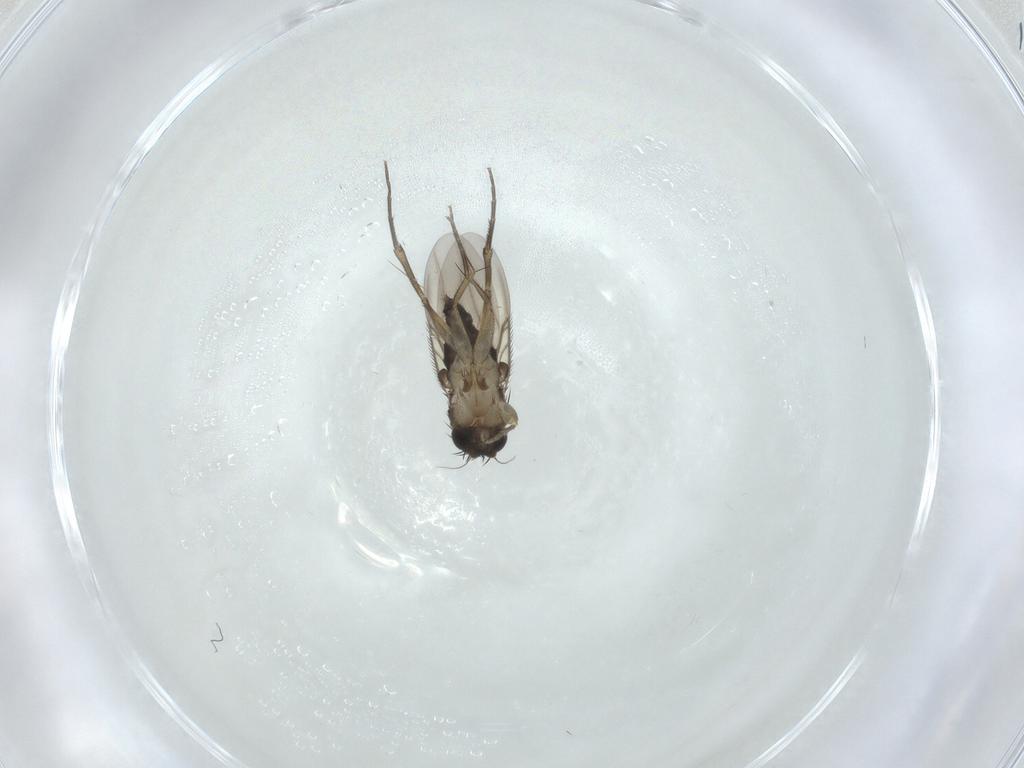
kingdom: Animalia
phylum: Arthropoda
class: Insecta
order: Diptera
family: Phoridae
